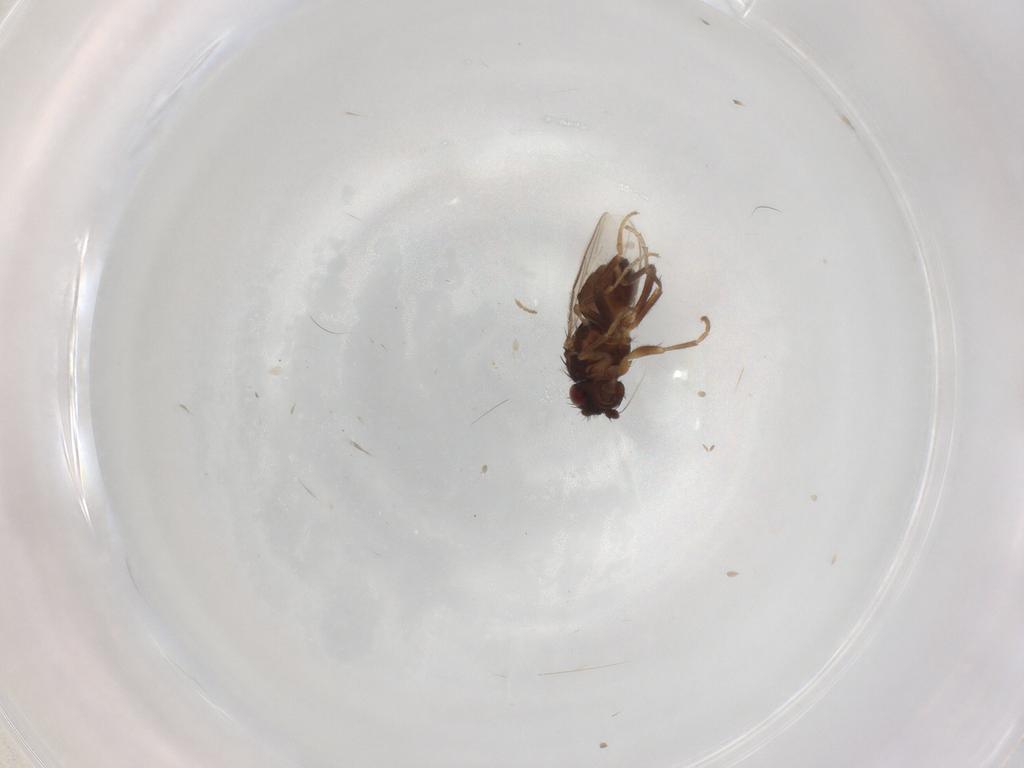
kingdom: Animalia
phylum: Arthropoda
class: Insecta
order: Diptera
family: Sphaeroceridae
